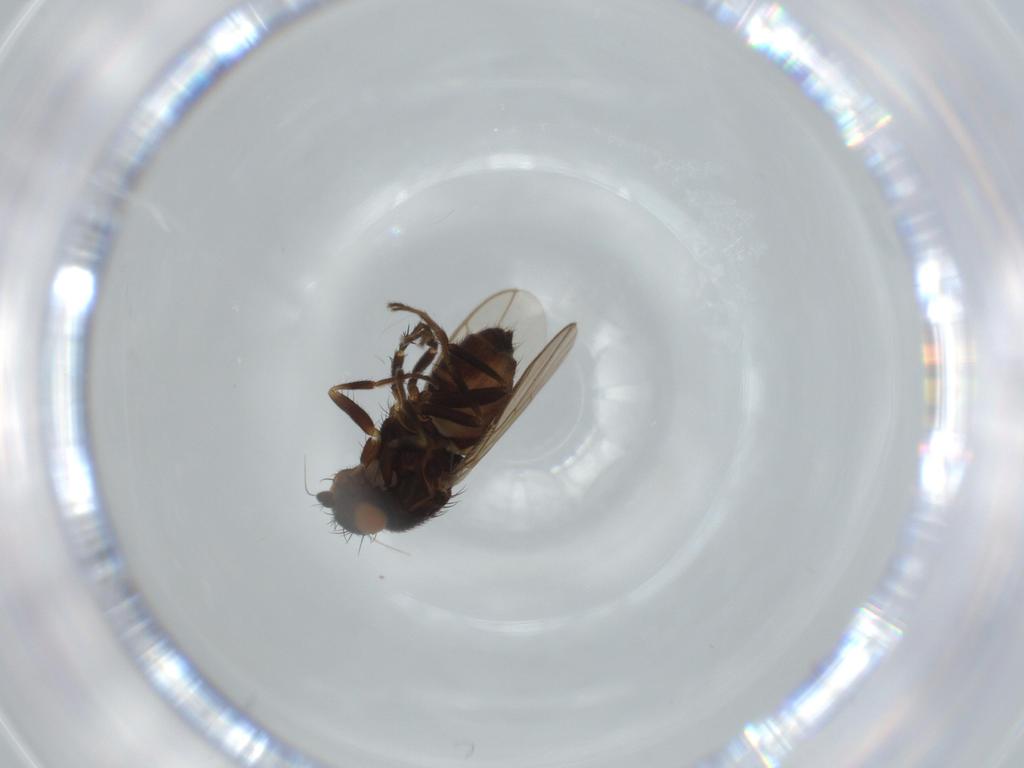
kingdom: Animalia
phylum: Arthropoda
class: Insecta
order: Diptera
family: Sphaeroceridae
